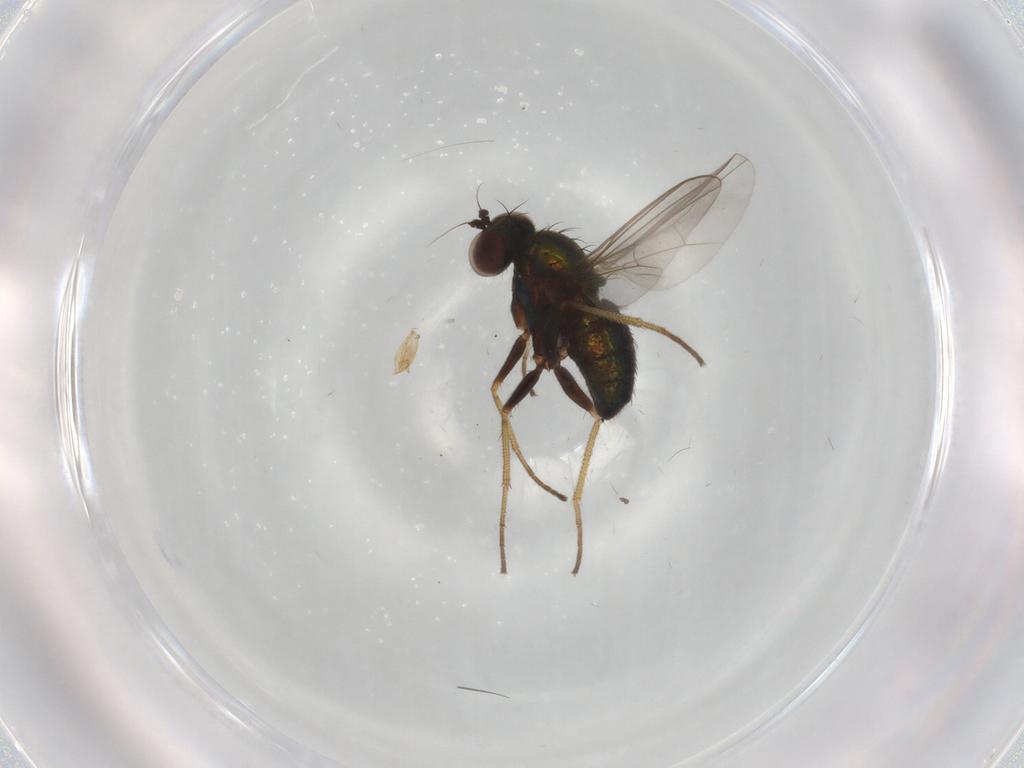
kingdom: Animalia
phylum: Arthropoda
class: Insecta
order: Diptera
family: Dolichopodidae
